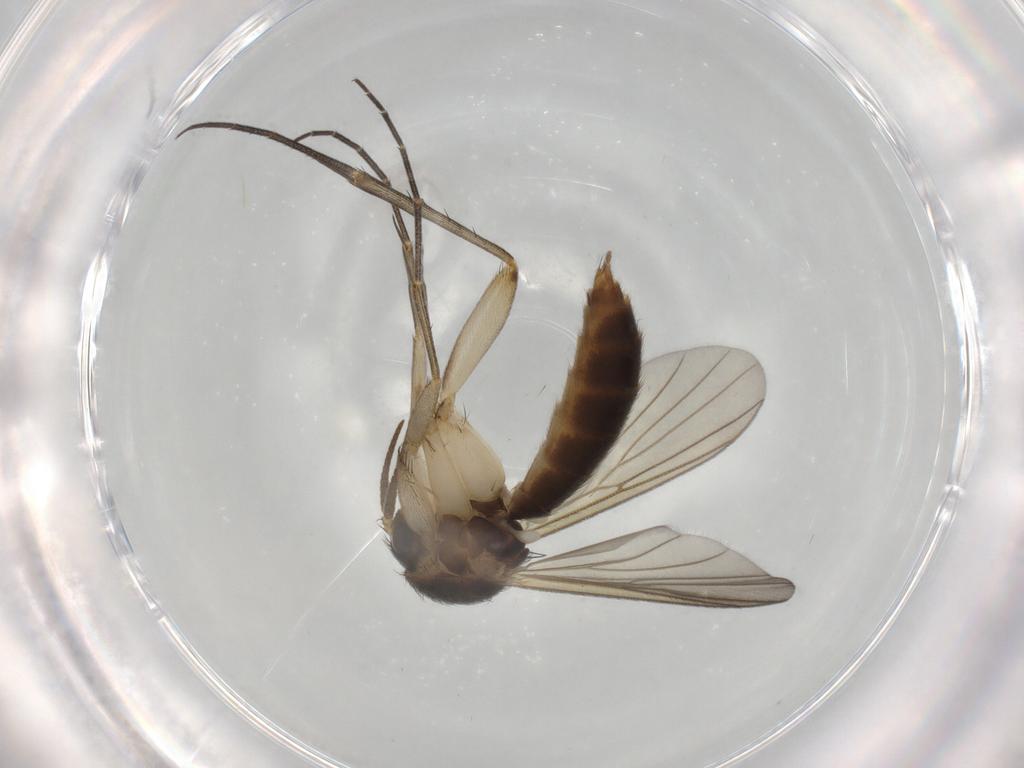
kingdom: Animalia
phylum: Arthropoda
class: Insecta
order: Diptera
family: Mycetophilidae
